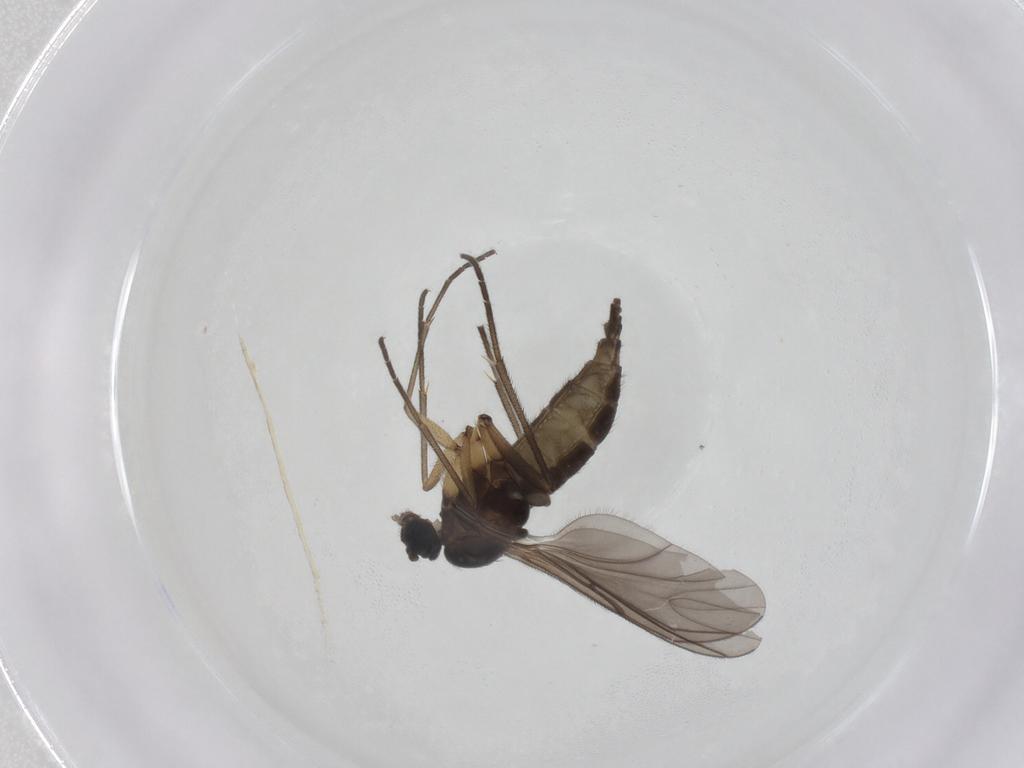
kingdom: Animalia
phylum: Arthropoda
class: Insecta
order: Diptera
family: Sciaridae
